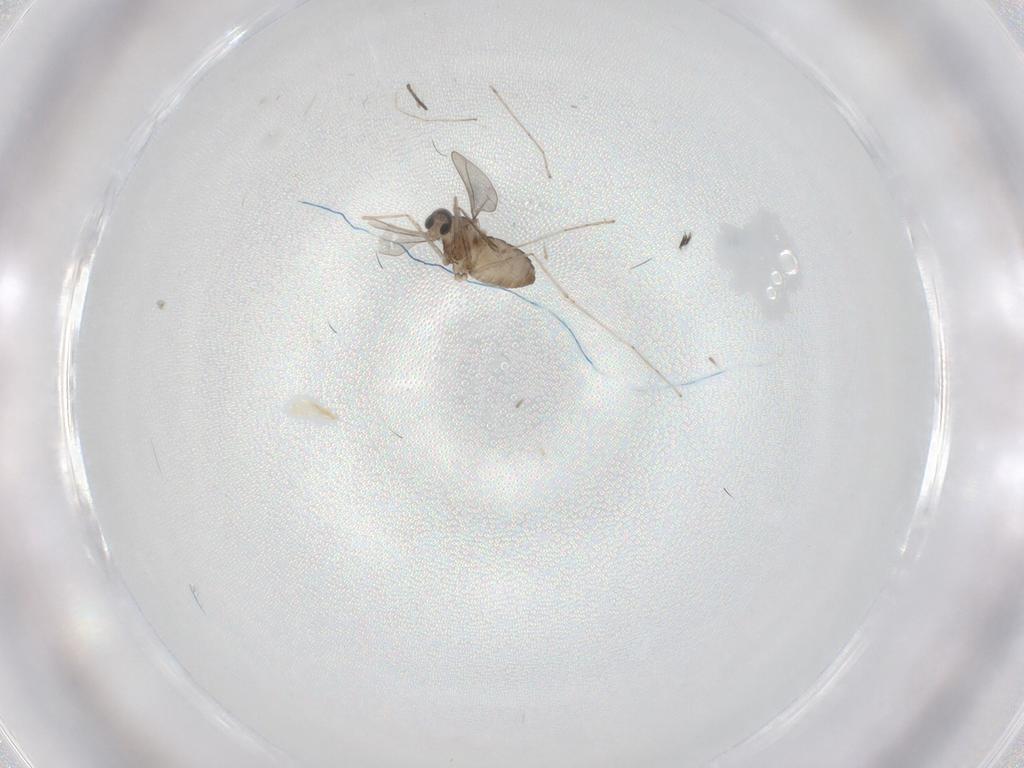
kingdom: Animalia
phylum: Arthropoda
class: Insecta
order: Diptera
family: Cecidomyiidae
